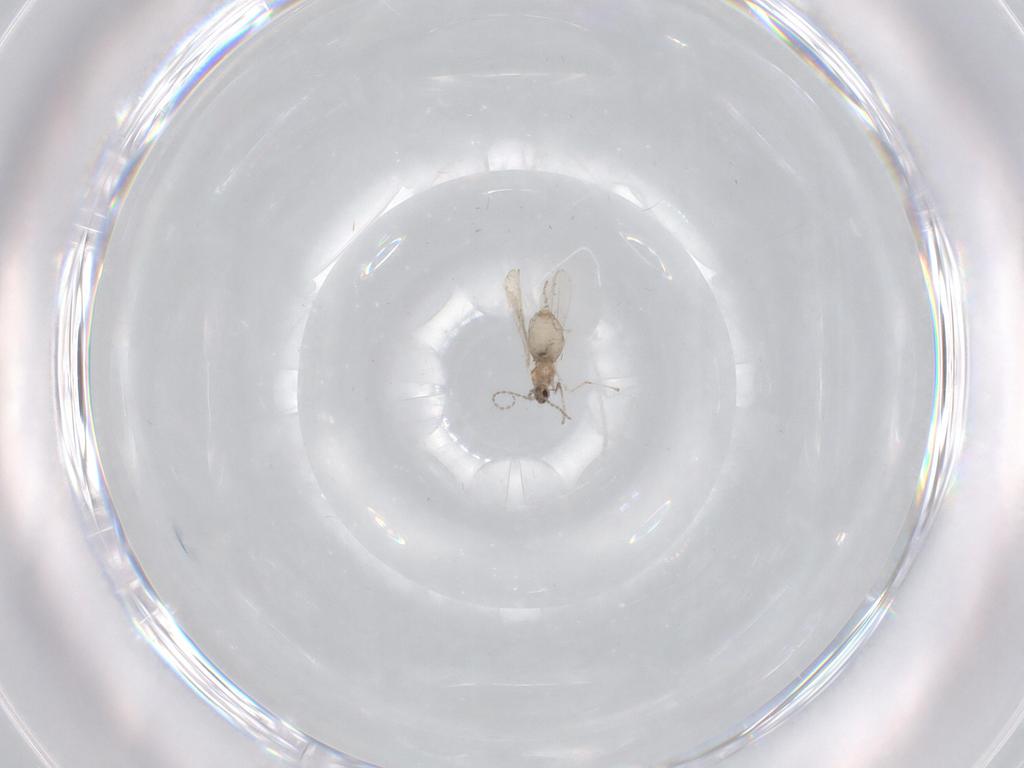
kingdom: Animalia
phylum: Arthropoda
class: Insecta
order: Diptera
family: Cecidomyiidae
